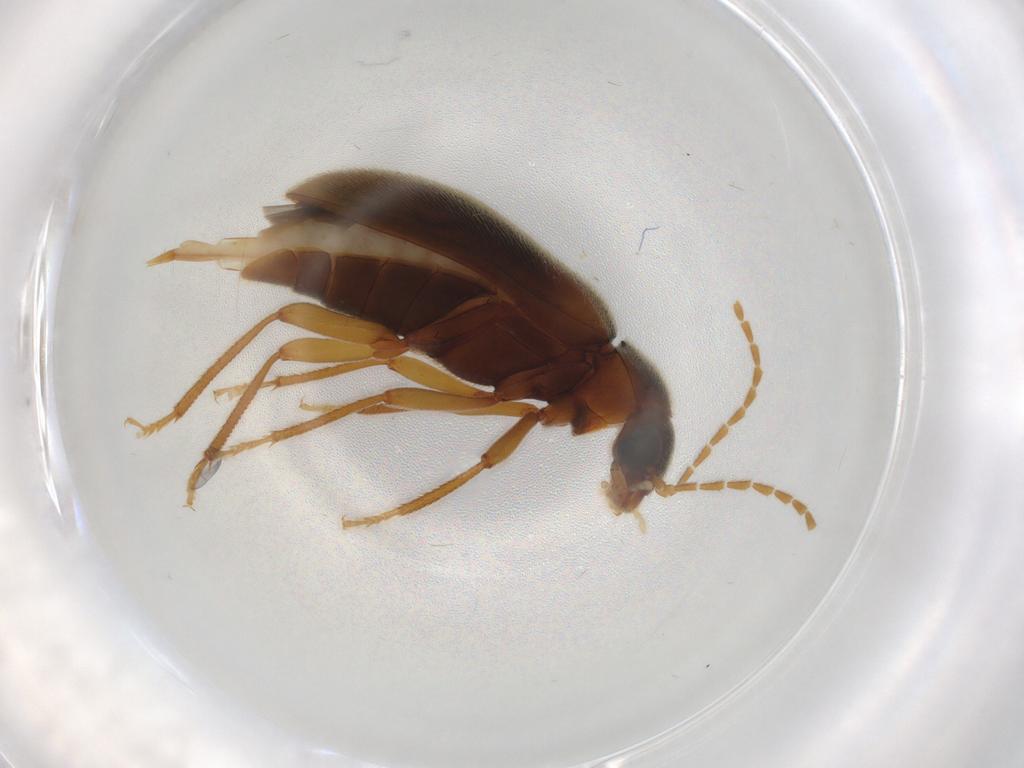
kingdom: Animalia
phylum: Arthropoda
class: Insecta
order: Coleoptera
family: Ptilodactylidae
